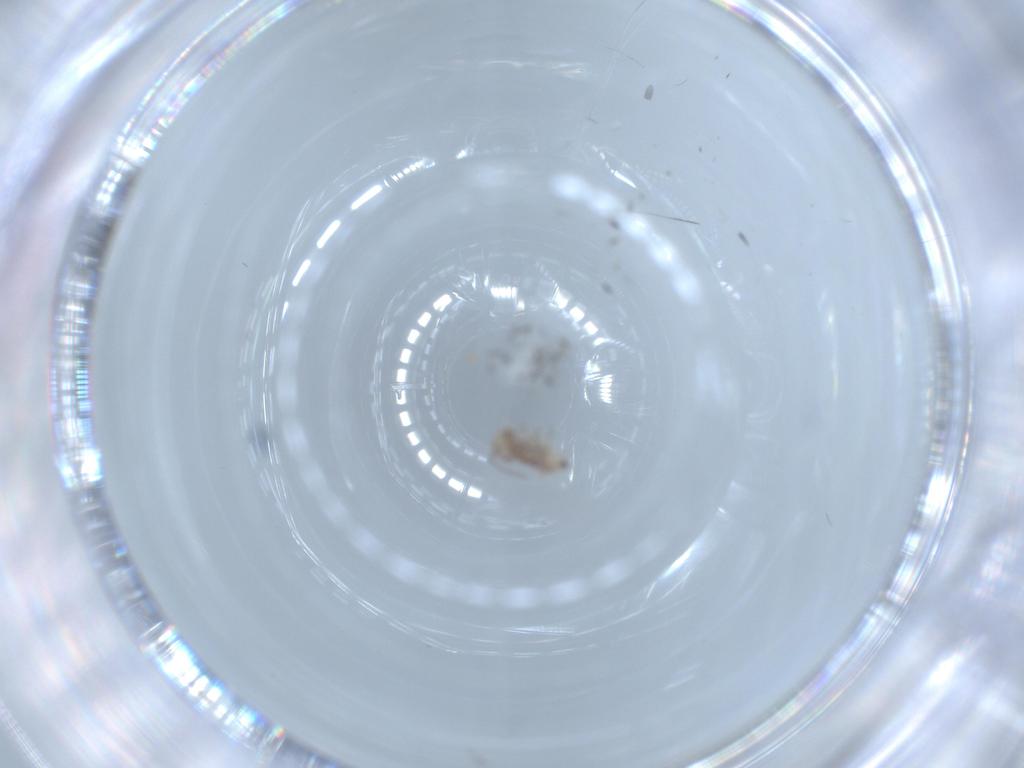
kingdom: Animalia
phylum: Arthropoda
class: Insecta
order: Psocodea
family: Caeciliusidae
